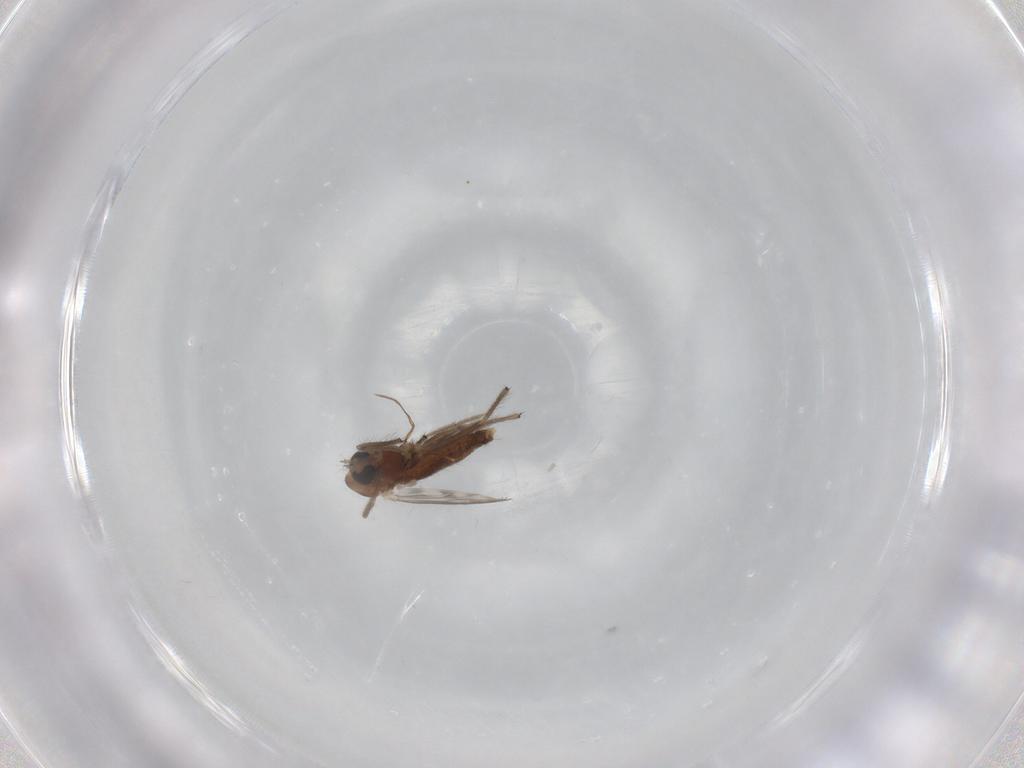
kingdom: Animalia
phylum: Arthropoda
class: Insecta
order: Diptera
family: Chironomidae
